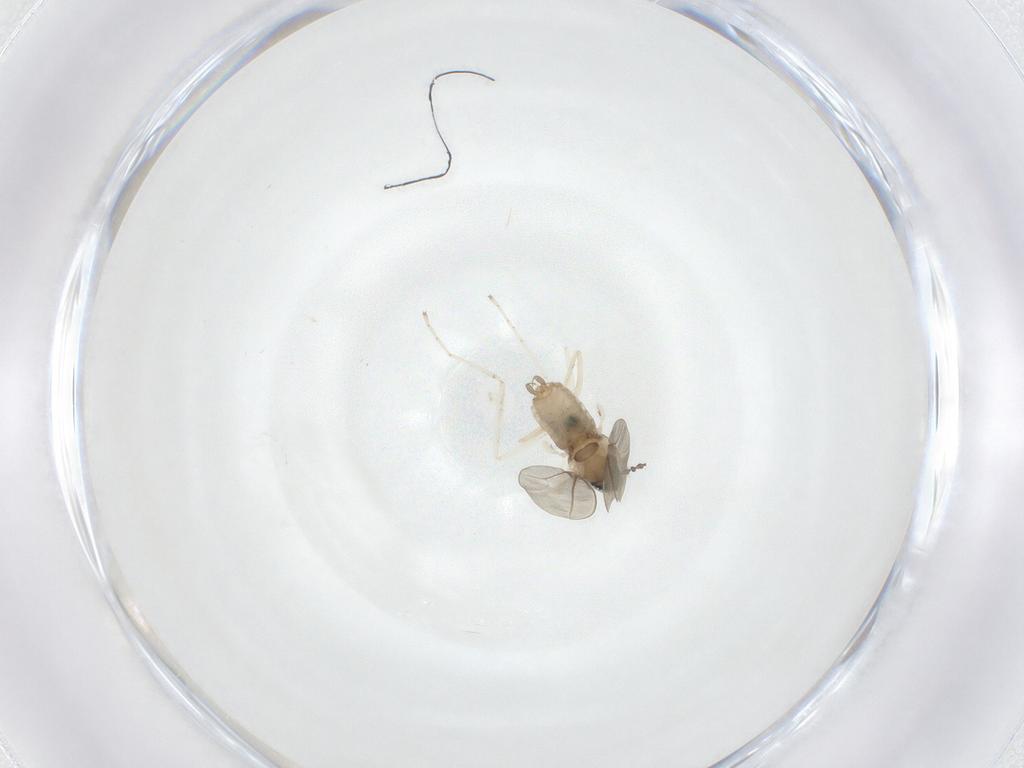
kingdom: Animalia
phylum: Arthropoda
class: Insecta
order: Diptera
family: Cecidomyiidae
